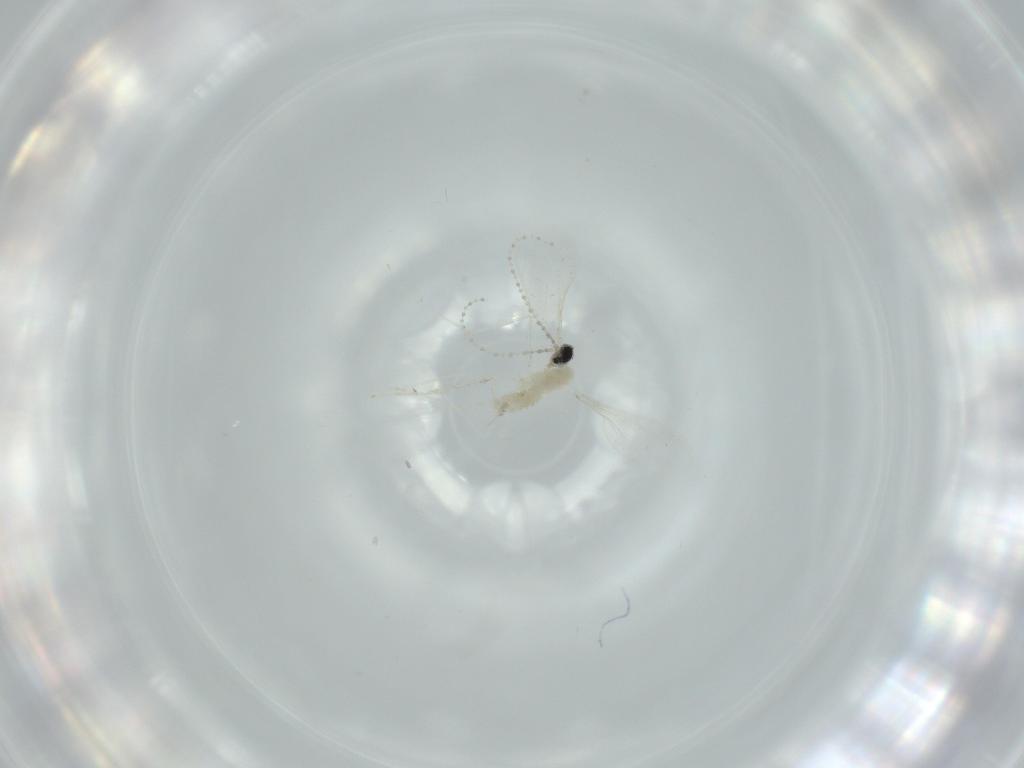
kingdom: Animalia
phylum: Arthropoda
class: Insecta
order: Diptera
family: Cecidomyiidae
